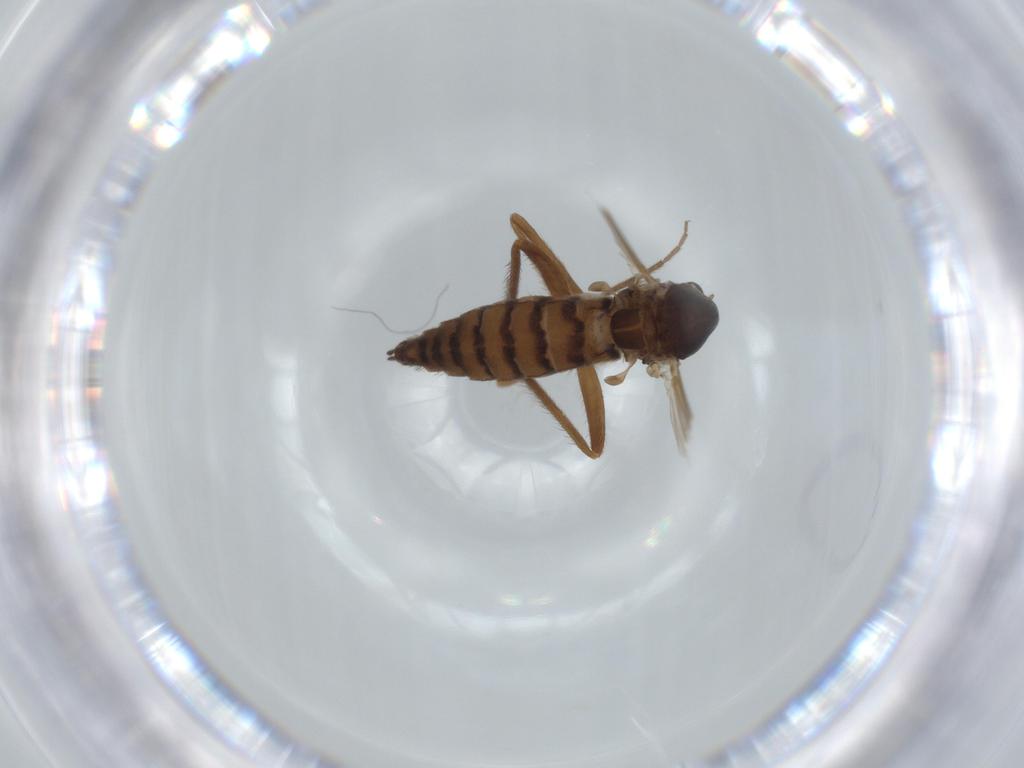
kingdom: Animalia
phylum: Arthropoda
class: Insecta
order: Diptera
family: Chironomidae
